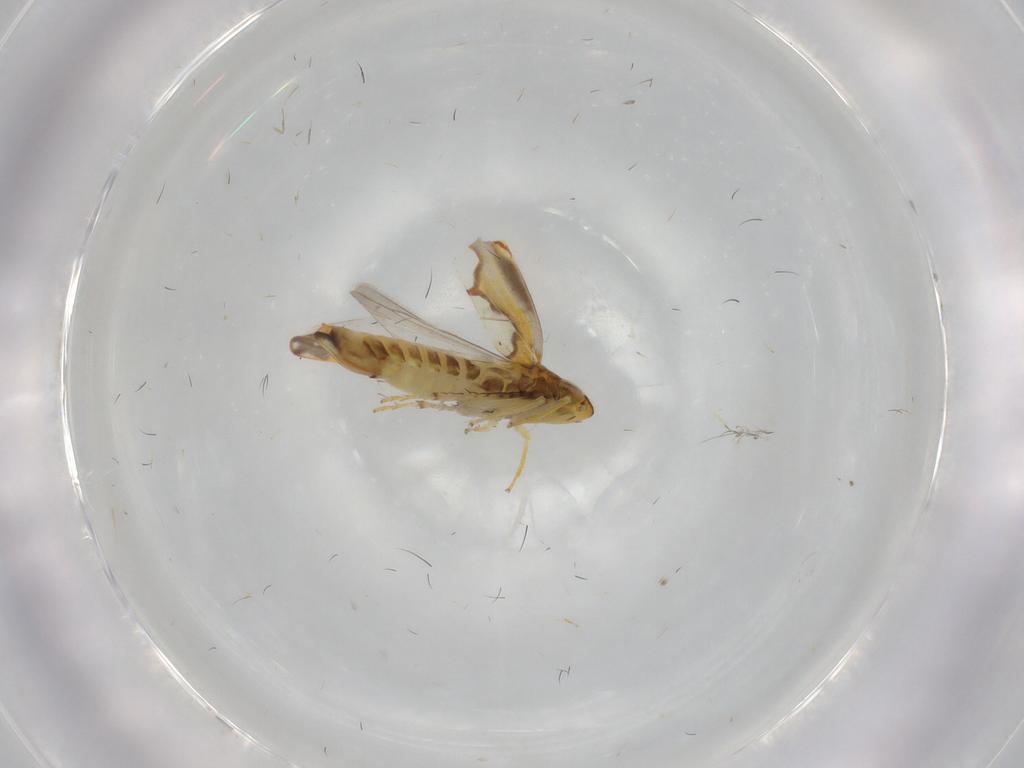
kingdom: Animalia
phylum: Arthropoda
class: Insecta
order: Hemiptera
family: Cicadellidae
